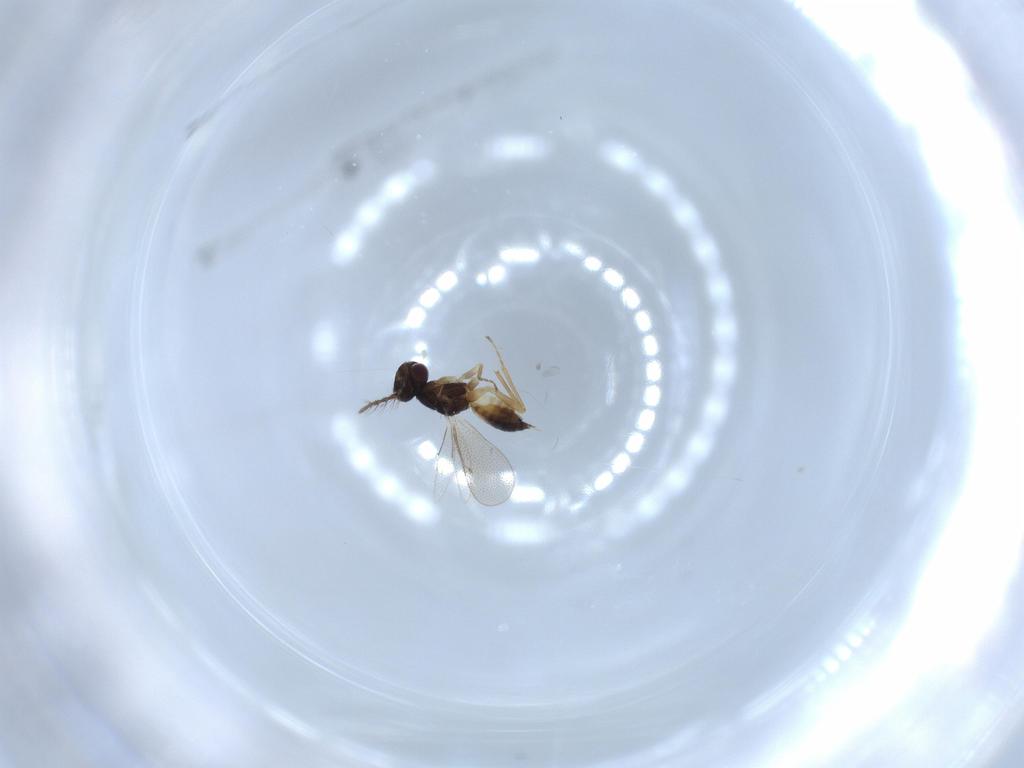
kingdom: Animalia
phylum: Arthropoda
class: Insecta
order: Hymenoptera
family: Eulophidae
